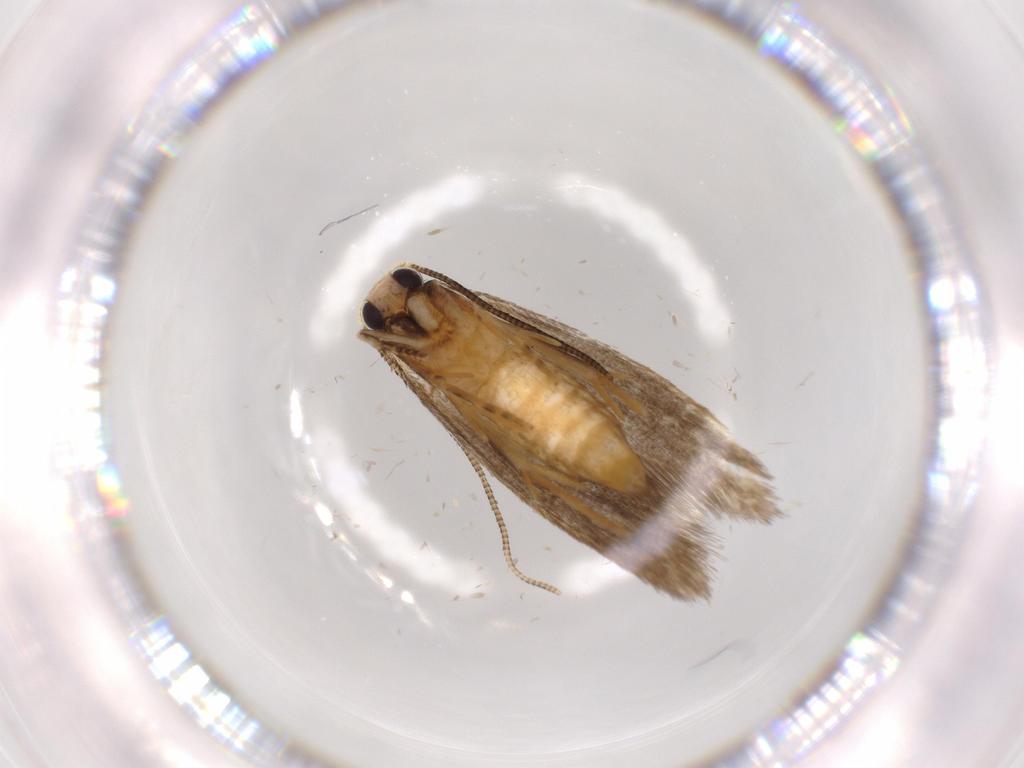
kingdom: Animalia
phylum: Arthropoda
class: Insecta
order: Lepidoptera
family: Tineidae
